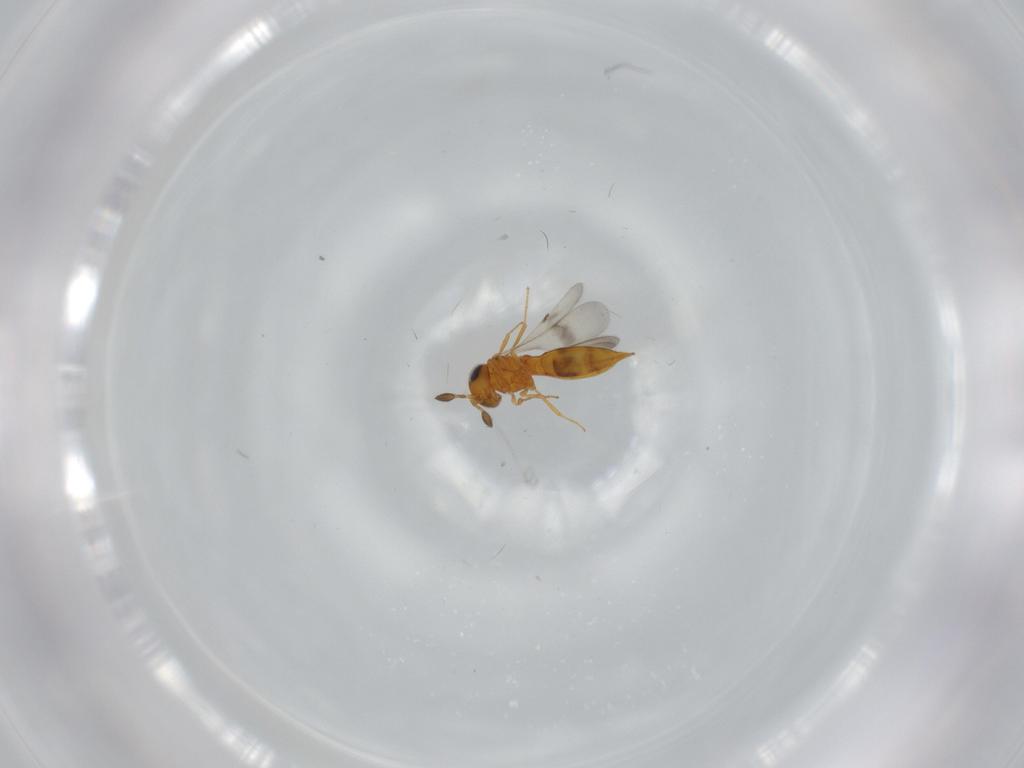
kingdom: Animalia
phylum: Arthropoda
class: Insecta
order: Hymenoptera
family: Scelionidae
